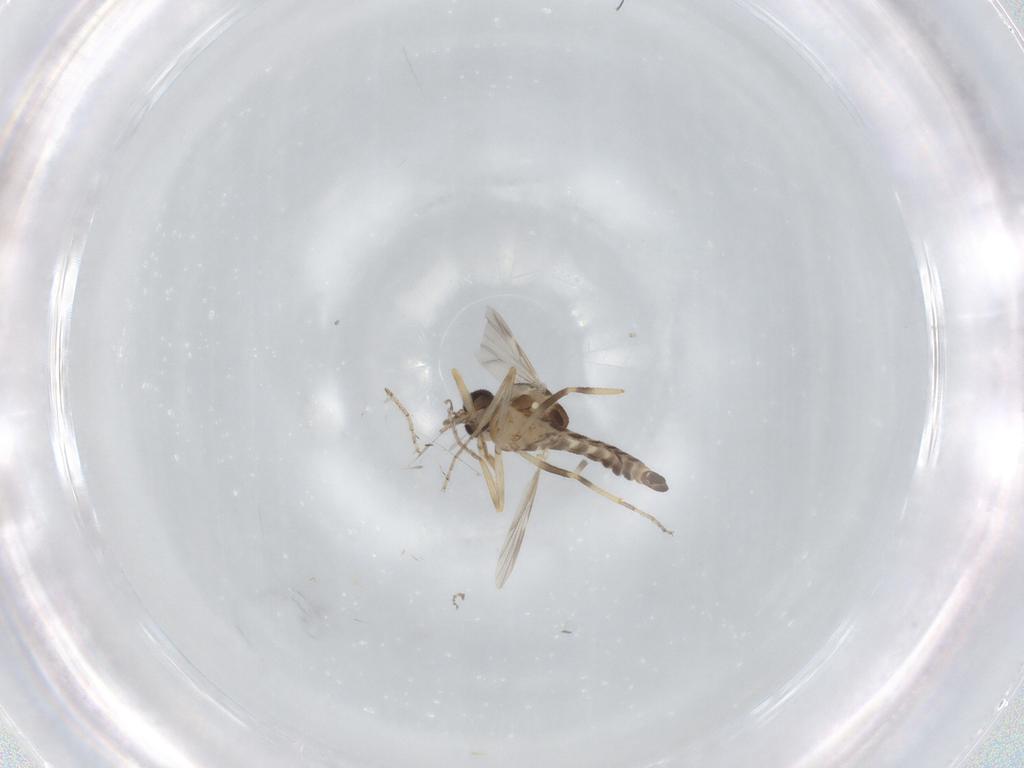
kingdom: Animalia
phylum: Arthropoda
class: Insecta
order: Diptera
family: Ceratopogonidae
